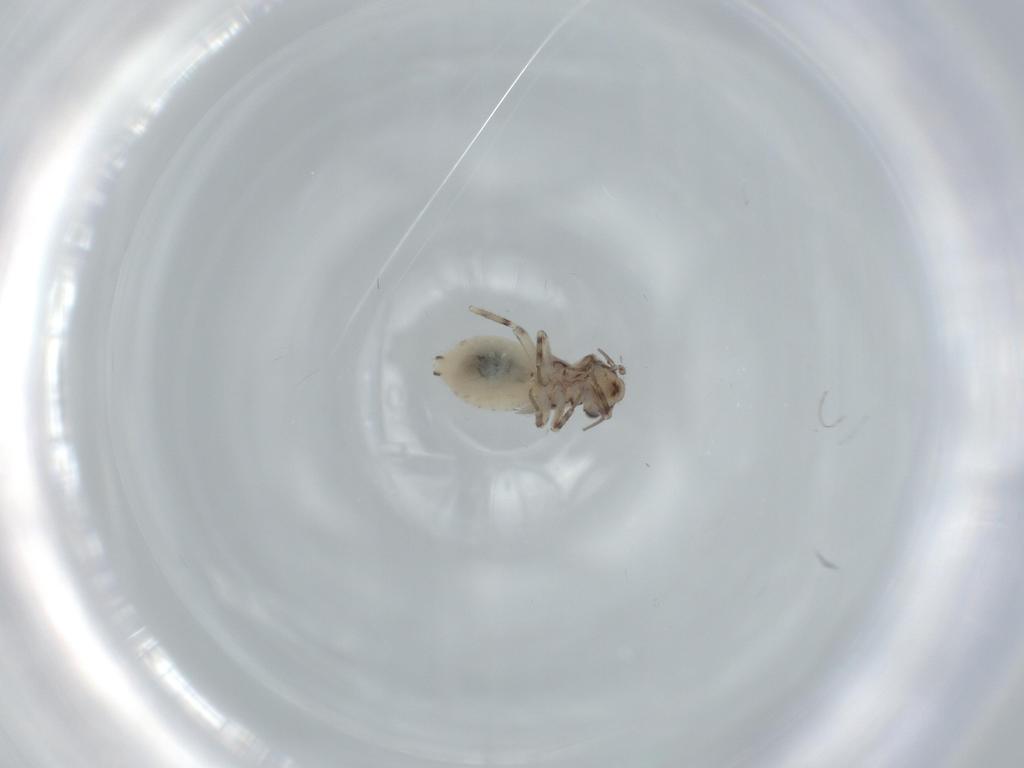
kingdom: Animalia
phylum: Arthropoda
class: Insecta
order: Psocodea
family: Lepidopsocidae
